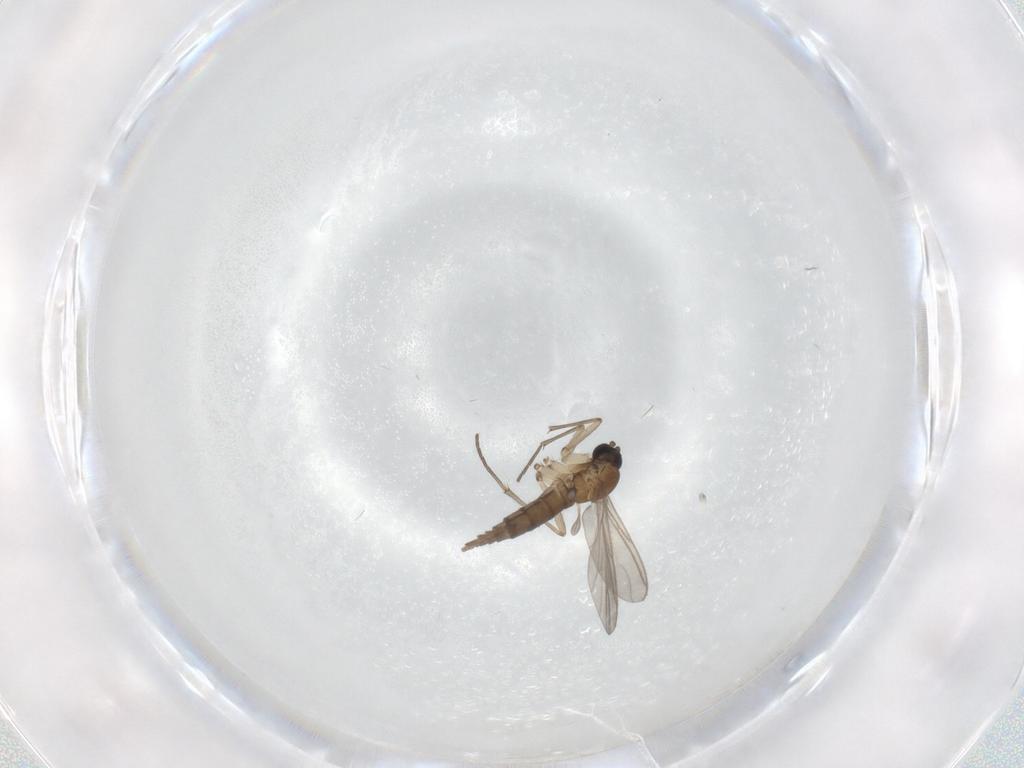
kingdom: Animalia
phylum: Arthropoda
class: Insecta
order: Diptera
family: Sciaridae
